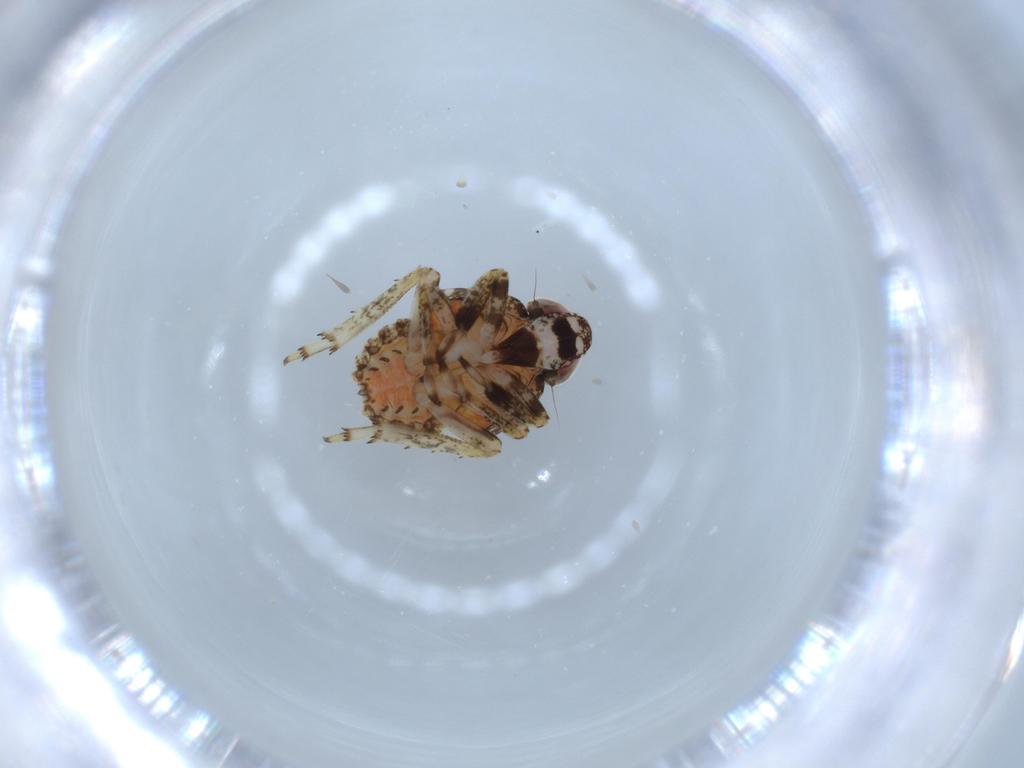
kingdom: Animalia
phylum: Arthropoda
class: Insecta
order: Hemiptera
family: Issidae
